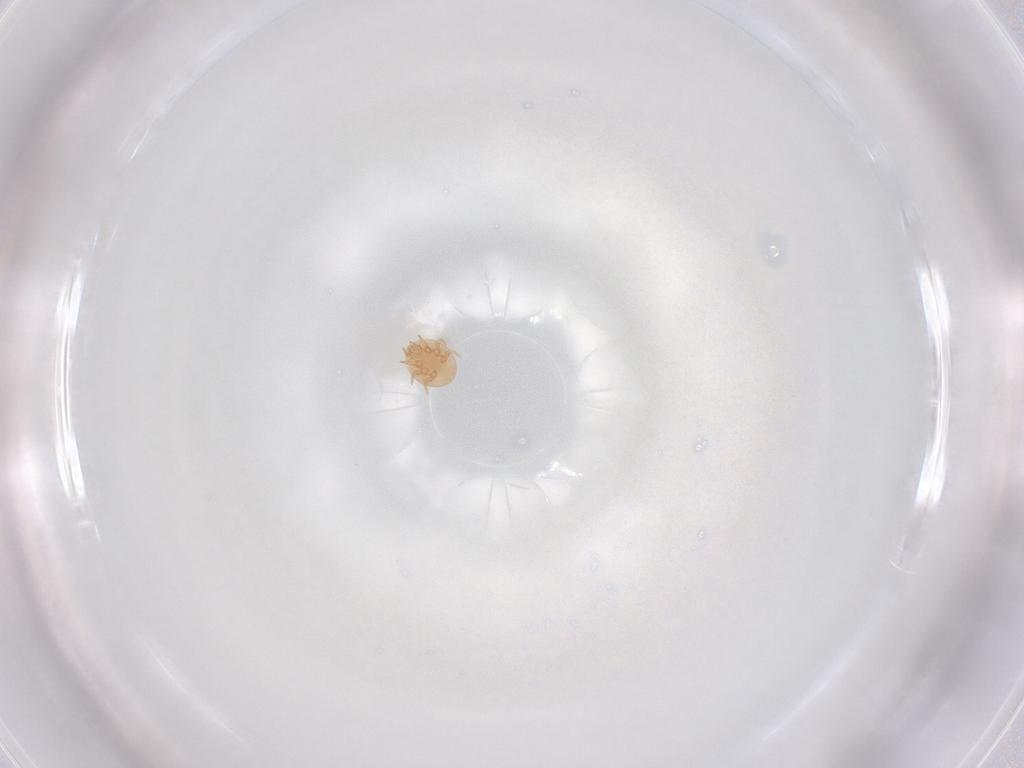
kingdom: Animalia
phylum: Arthropoda
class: Arachnida
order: Mesostigmata
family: Trematuridae
